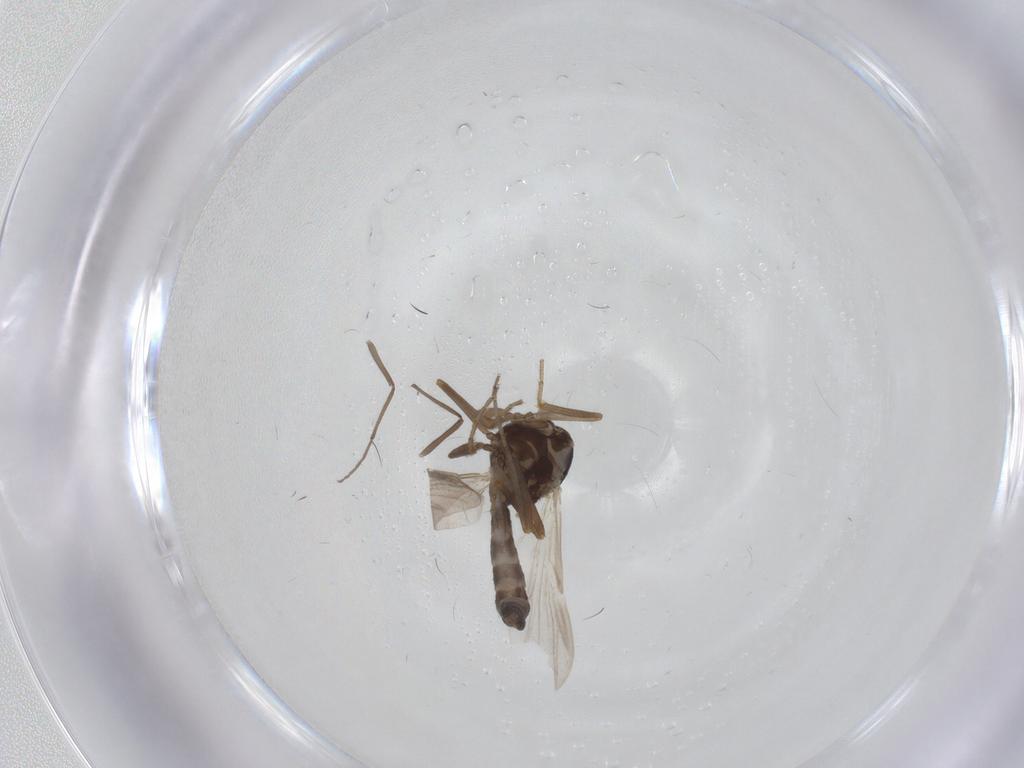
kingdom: Animalia
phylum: Arthropoda
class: Insecta
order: Diptera
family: Ceratopogonidae
